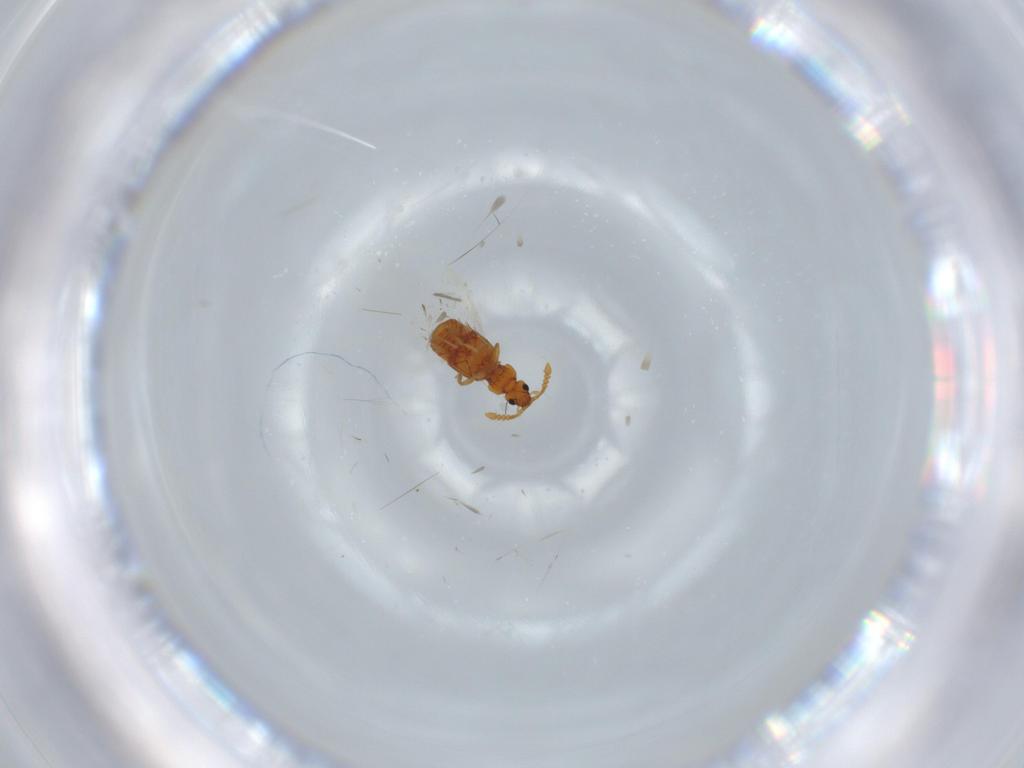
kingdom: Animalia
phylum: Arthropoda
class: Insecta
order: Coleoptera
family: Staphylinidae
